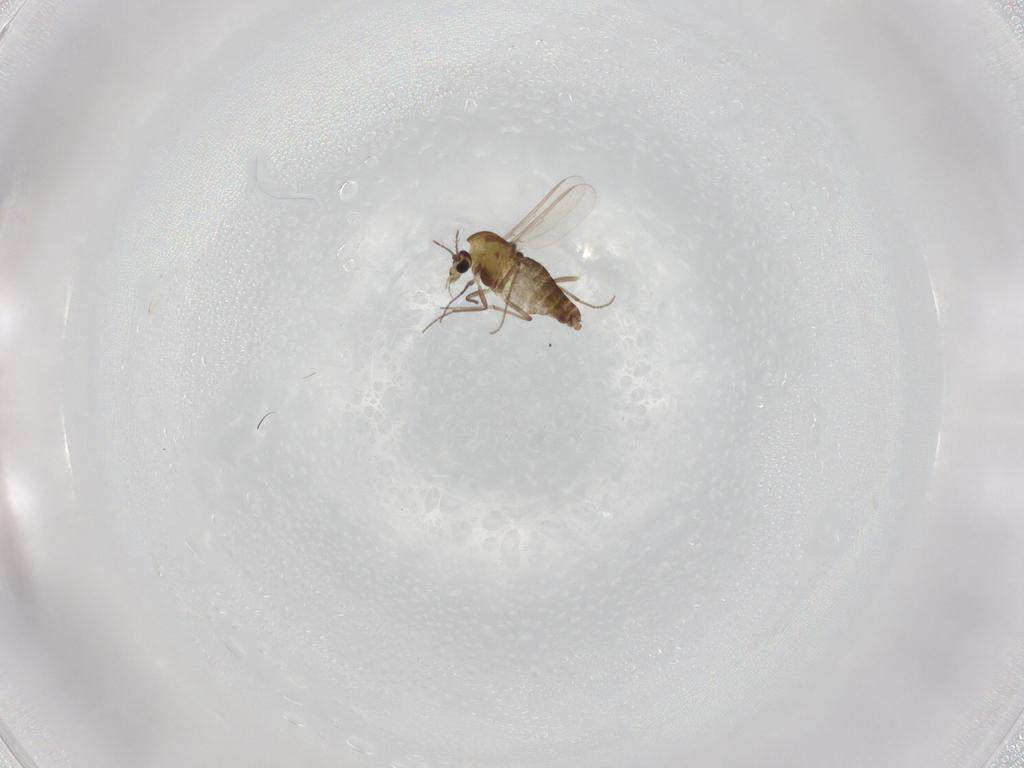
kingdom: Animalia
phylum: Arthropoda
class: Insecta
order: Diptera
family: Chironomidae
